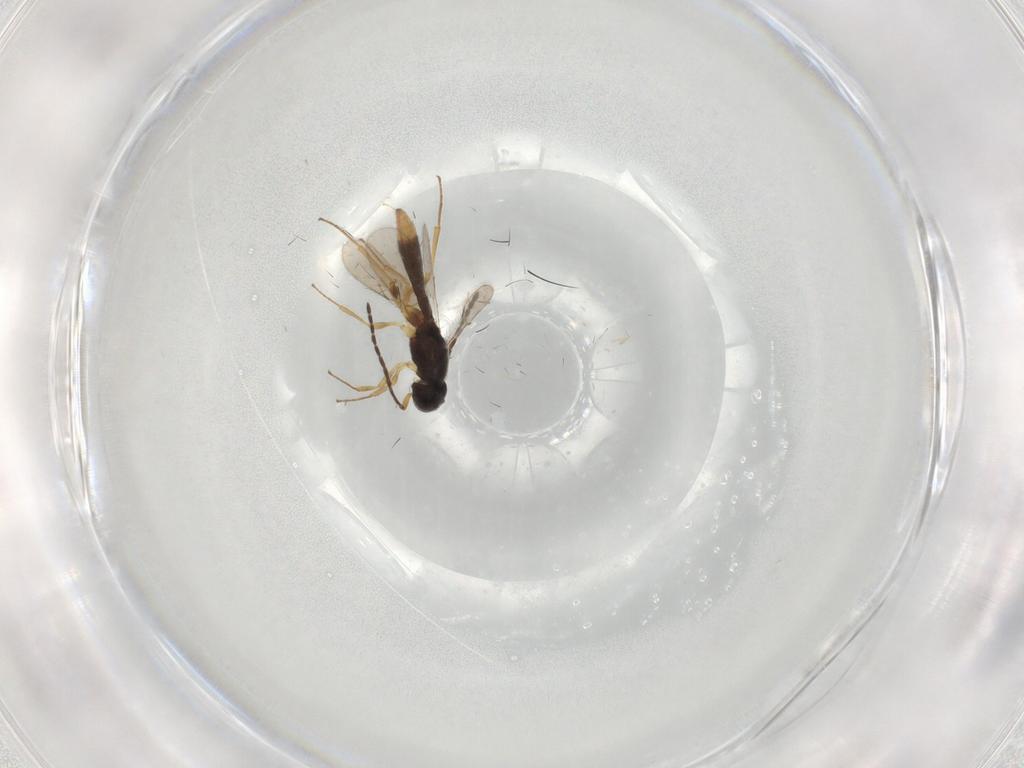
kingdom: Animalia
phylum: Arthropoda
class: Insecta
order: Hymenoptera
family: Scelionidae
